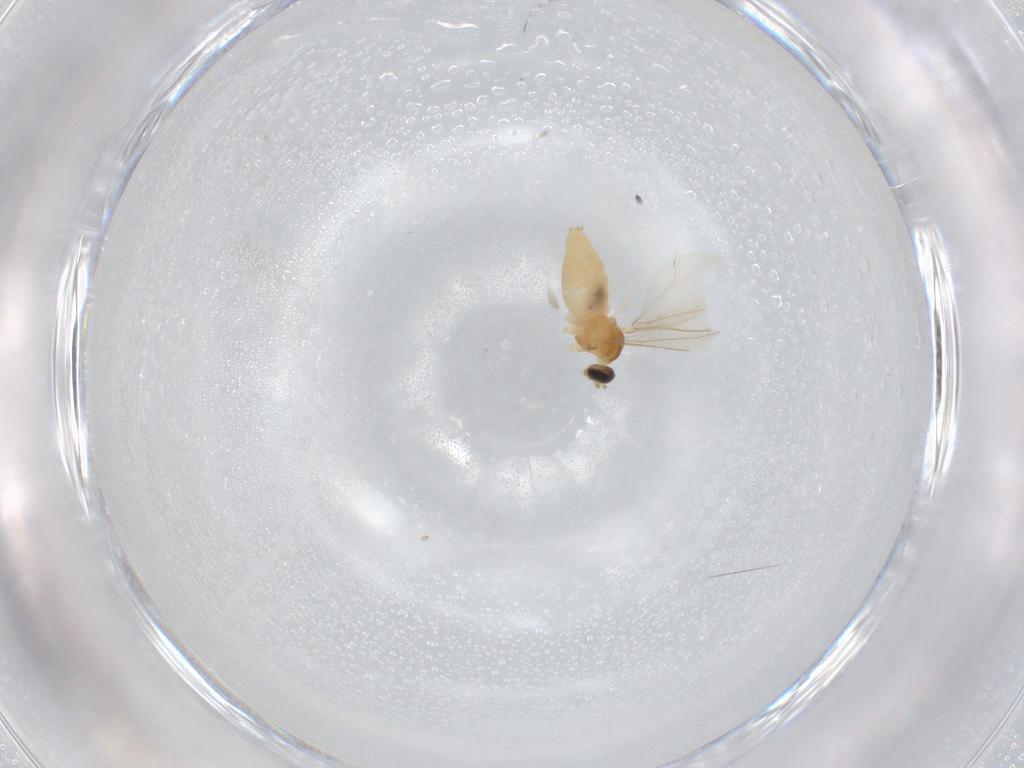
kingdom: Animalia
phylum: Arthropoda
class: Insecta
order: Diptera
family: Cecidomyiidae
